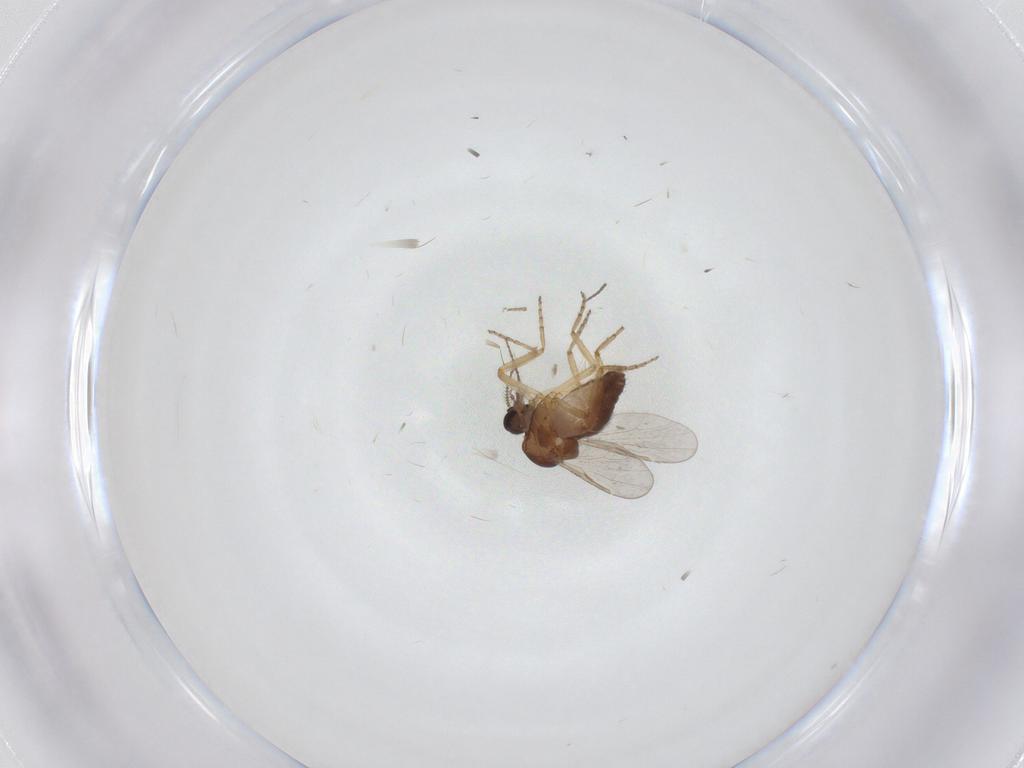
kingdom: Animalia
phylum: Arthropoda
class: Insecta
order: Diptera
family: Ceratopogonidae
